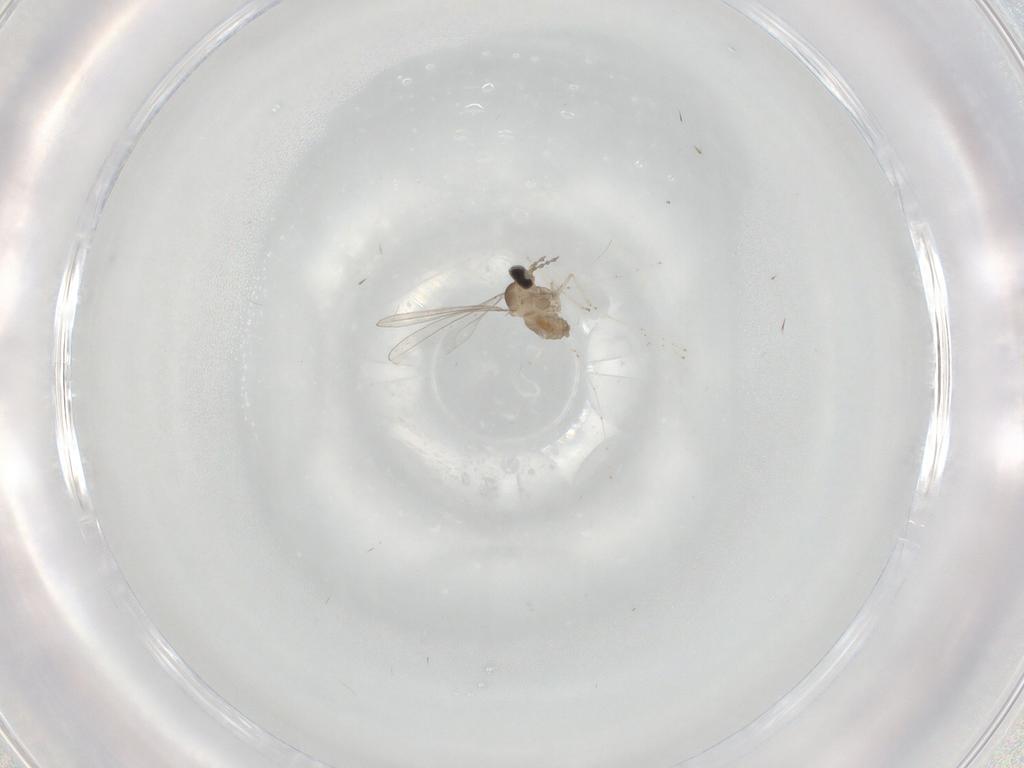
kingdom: Animalia
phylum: Arthropoda
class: Insecta
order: Diptera
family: Cecidomyiidae
